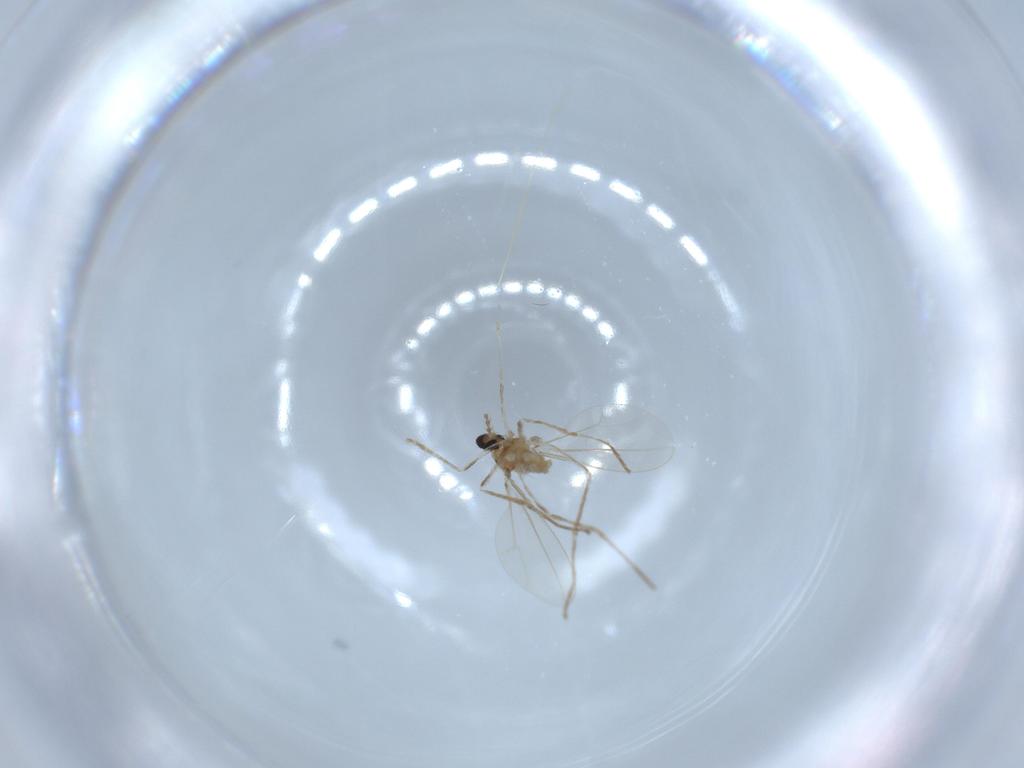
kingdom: Animalia
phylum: Arthropoda
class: Insecta
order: Diptera
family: Cecidomyiidae
